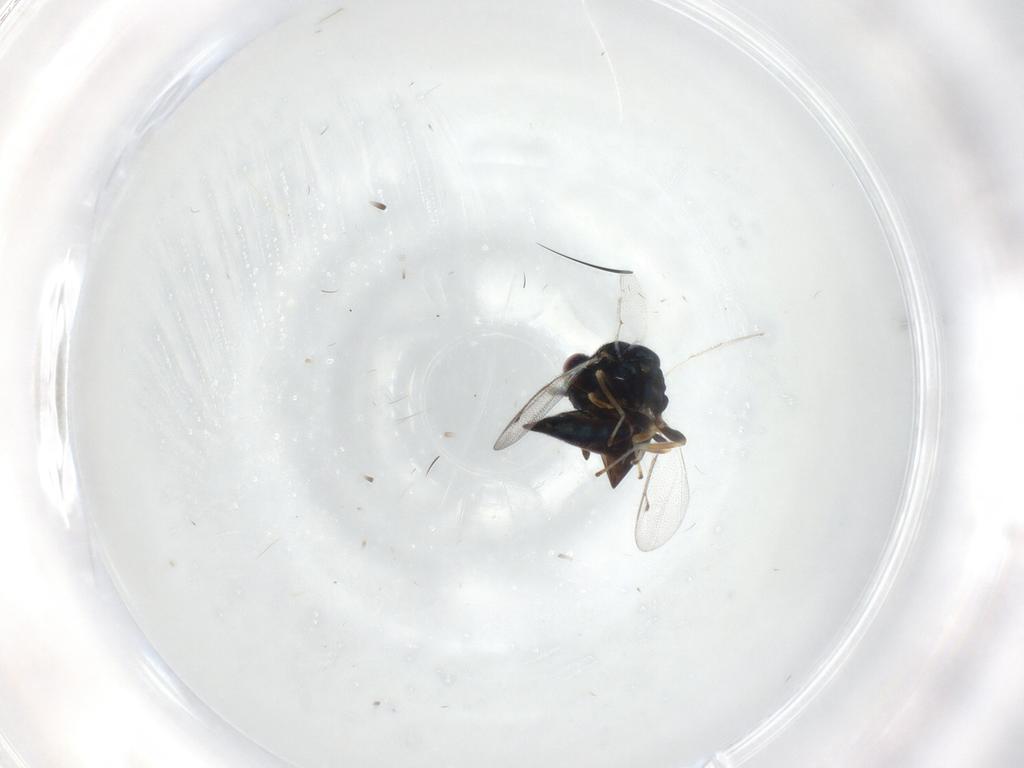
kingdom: Animalia
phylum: Arthropoda
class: Insecta
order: Hymenoptera
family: Pteromalidae
